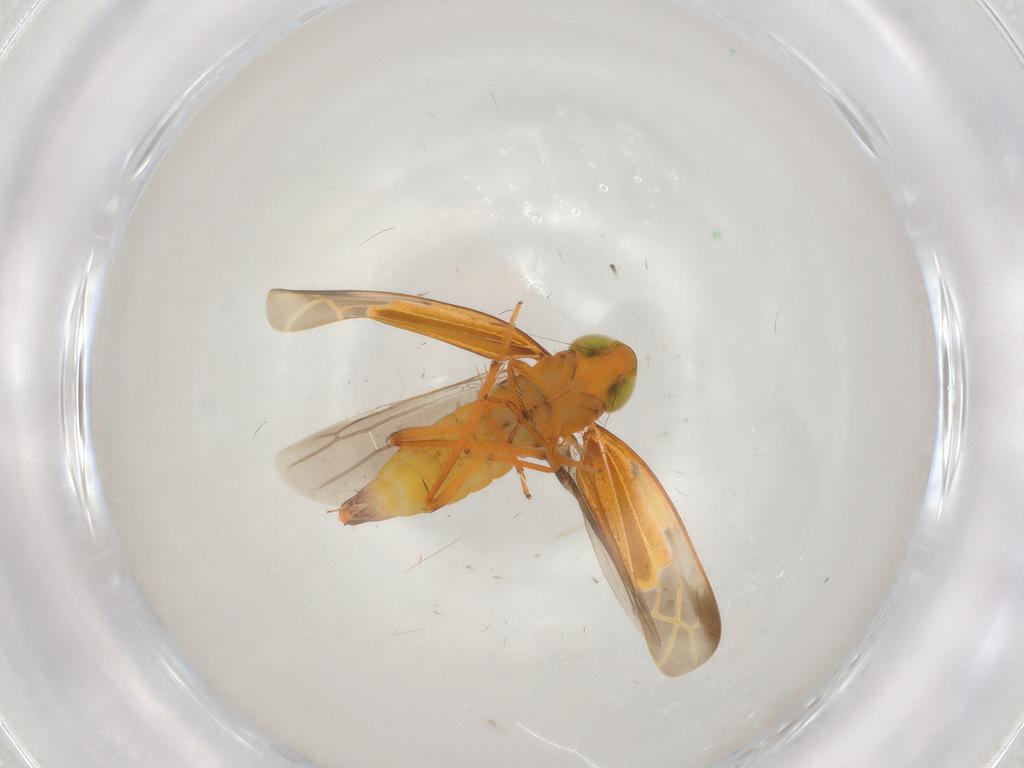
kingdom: Animalia
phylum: Arthropoda
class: Insecta
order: Hemiptera
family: Cicadellidae
